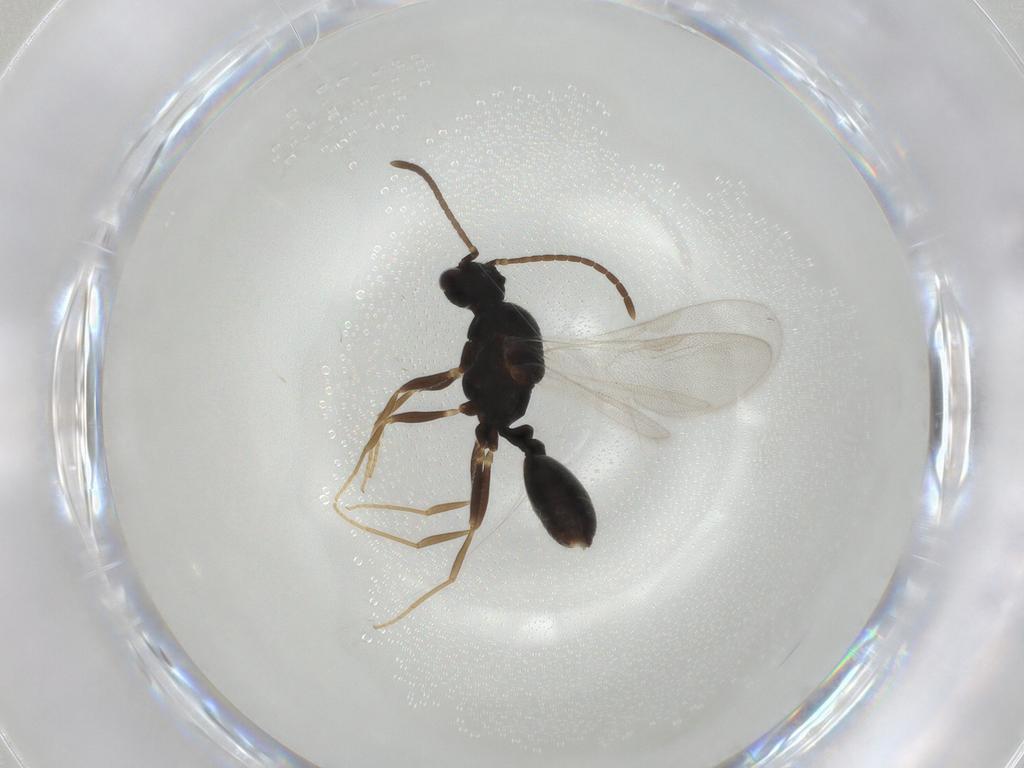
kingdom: Animalia
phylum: Arthropoda
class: Insecta
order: Hymenoptera
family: Formicidae
